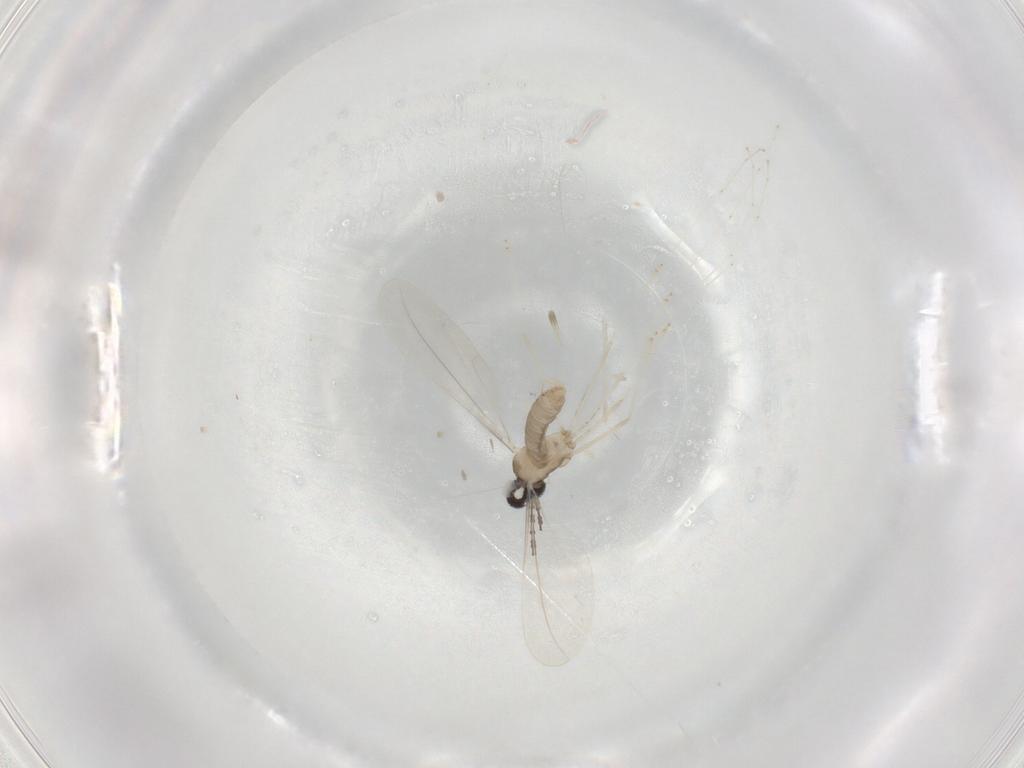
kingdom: Animalia
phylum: Arthropoda
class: Insecta
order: Diptera
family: Cecidomyiidae
